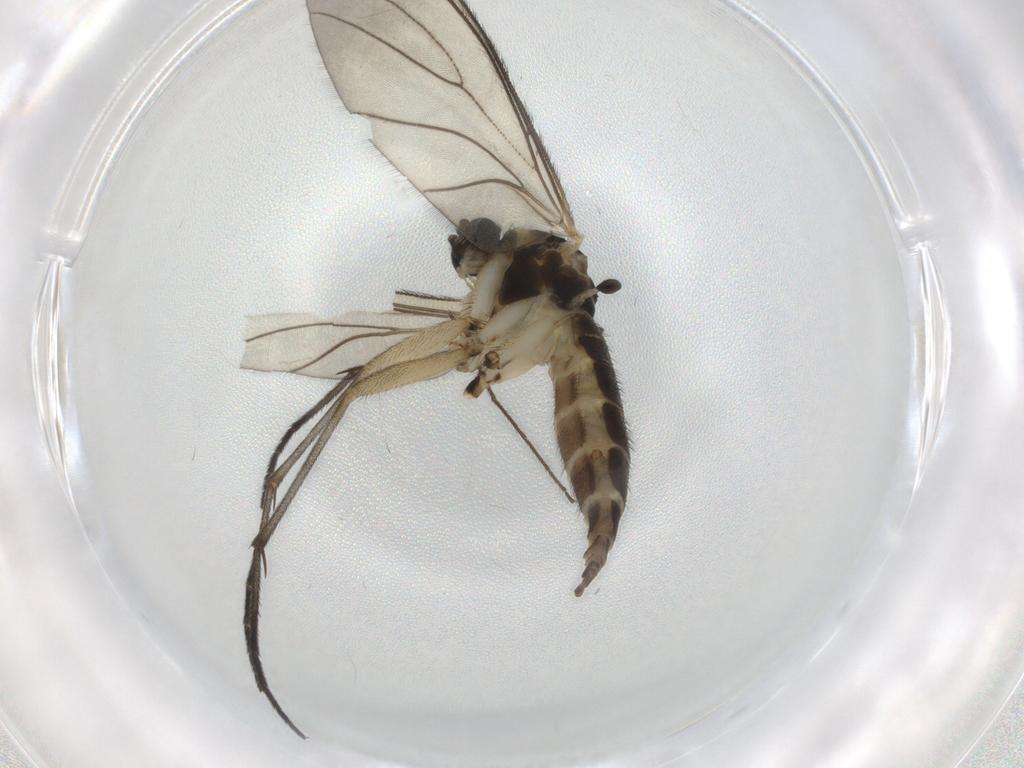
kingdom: Animalia
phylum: Arthropoda
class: Insecta
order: Diptera
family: Sciaridae
